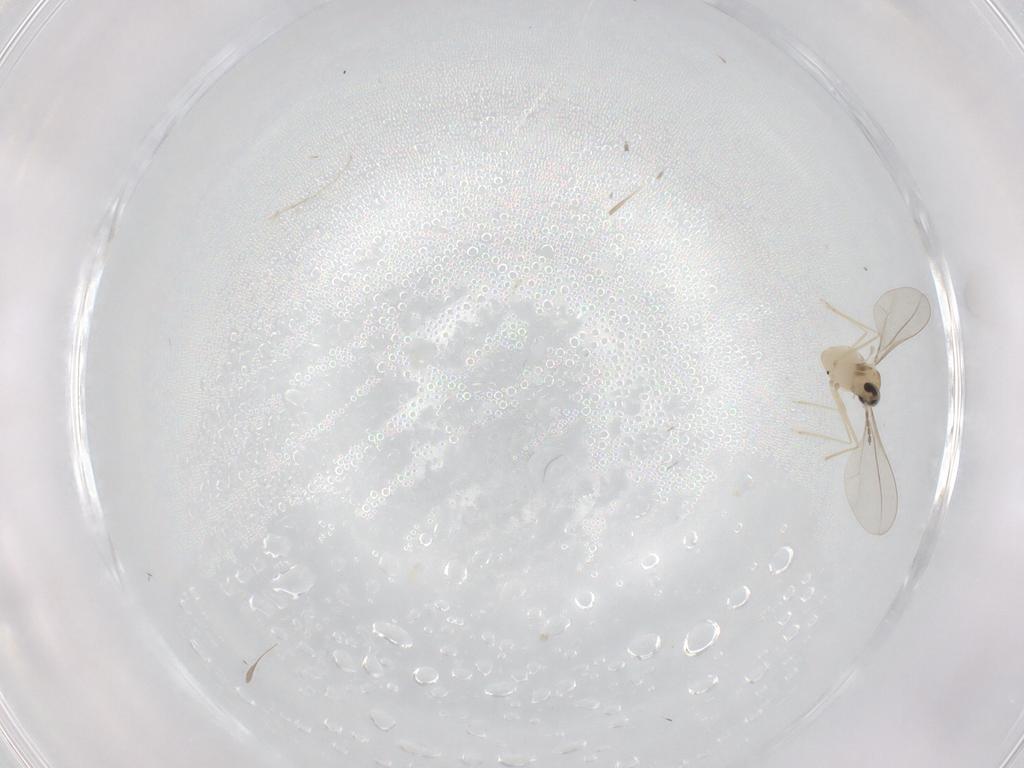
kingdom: Animalia
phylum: Arthropoda
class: Insecta
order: Diptera
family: Cecidomyiidae
